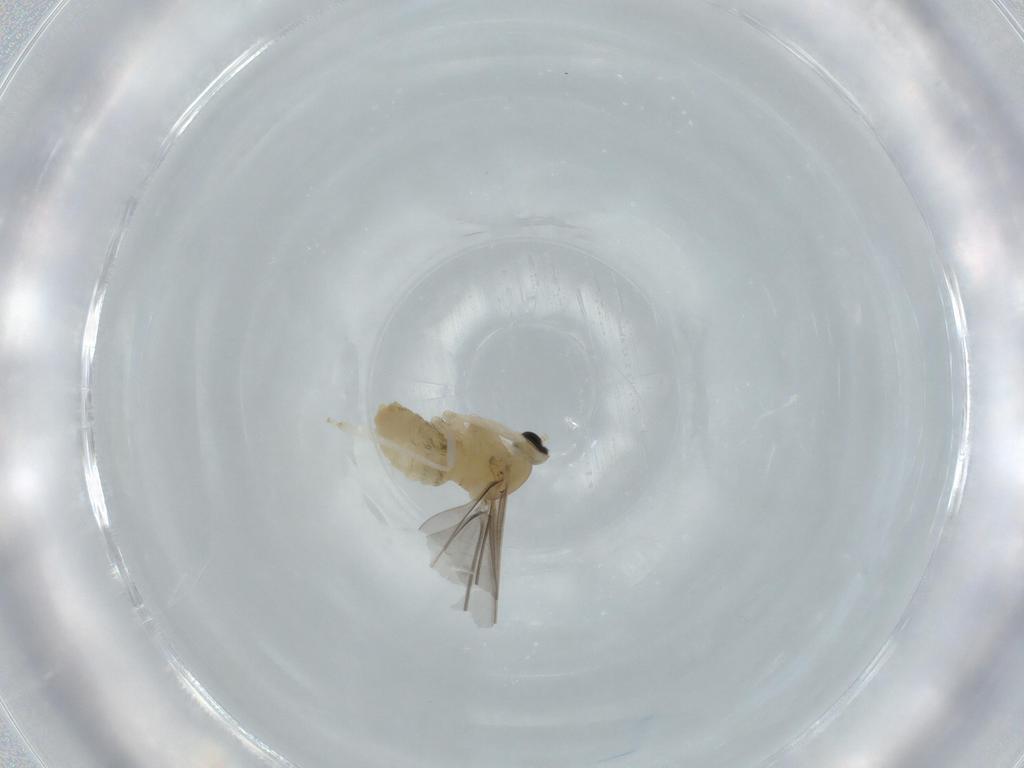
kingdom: Animalia
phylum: Arthropoda
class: Insecta
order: Diptera
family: Cecidomyiidae
